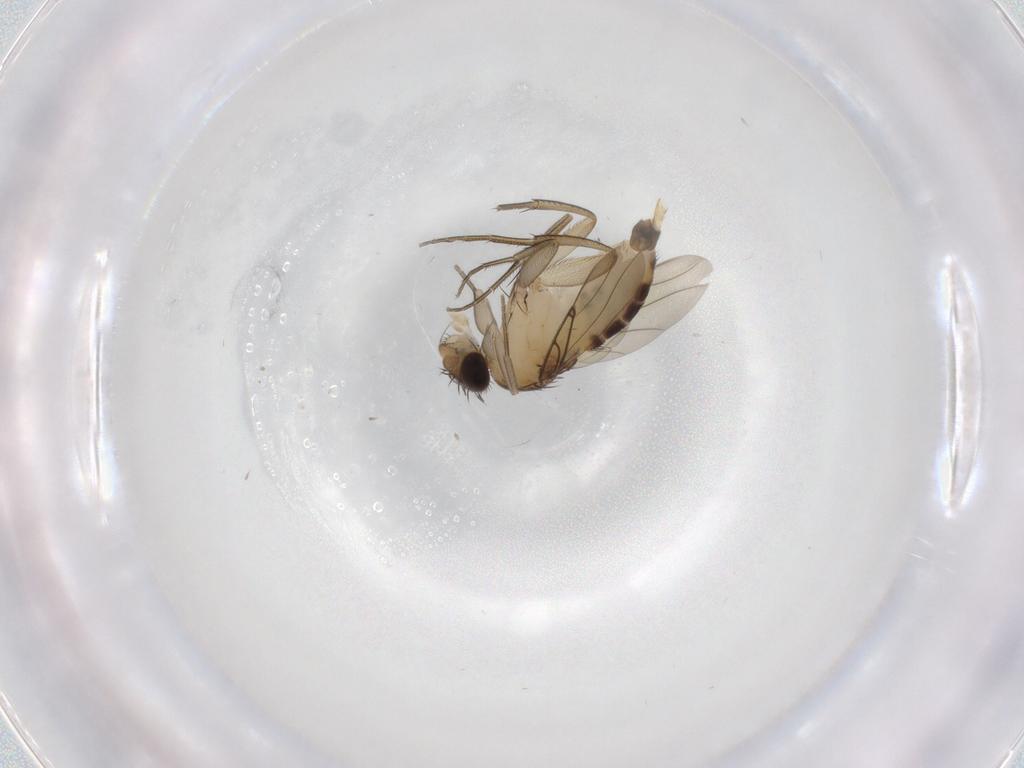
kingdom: Animalia
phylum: Arthropoda
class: Insecta
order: Diptera
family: Phoridae
